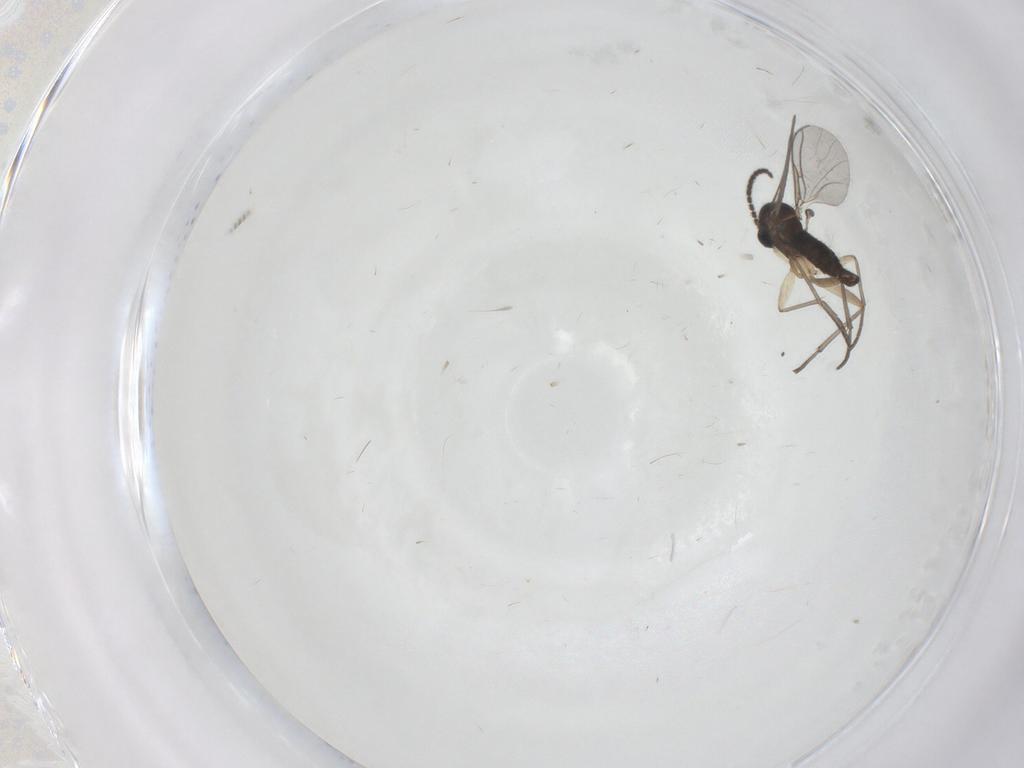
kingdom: Animalia
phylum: Arthropoda
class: Insecta
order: Diptera
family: Sciaridae
